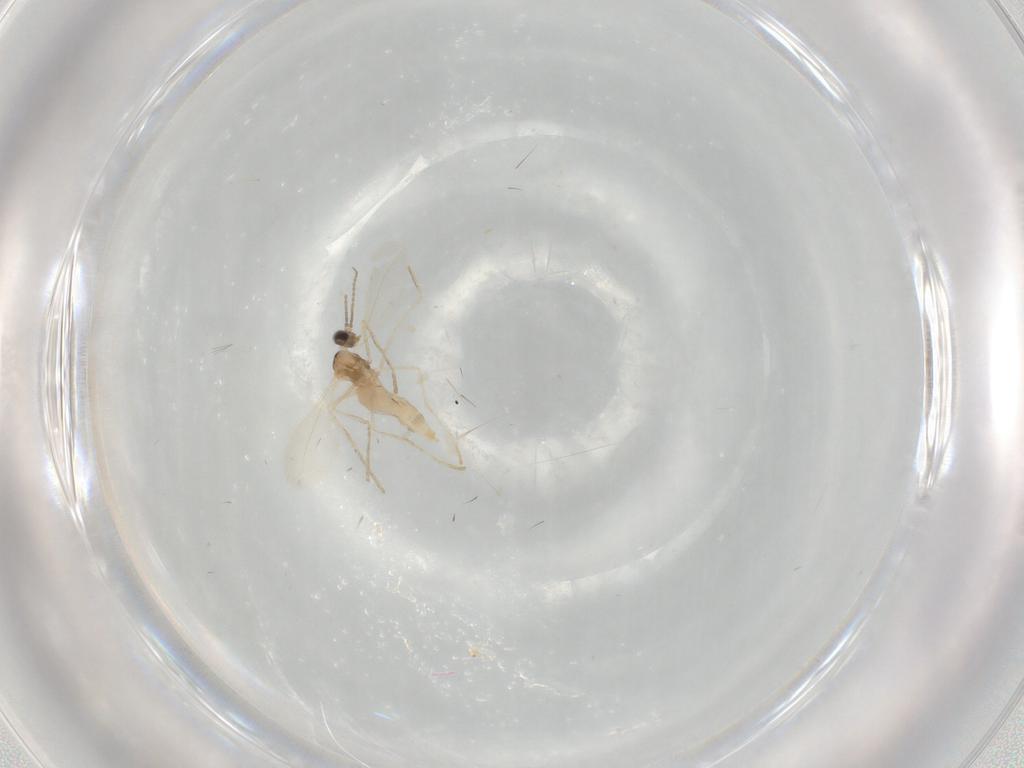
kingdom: Animalia
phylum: Arthropoda
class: Insecta
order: Diptera
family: Cecidomyiidae
